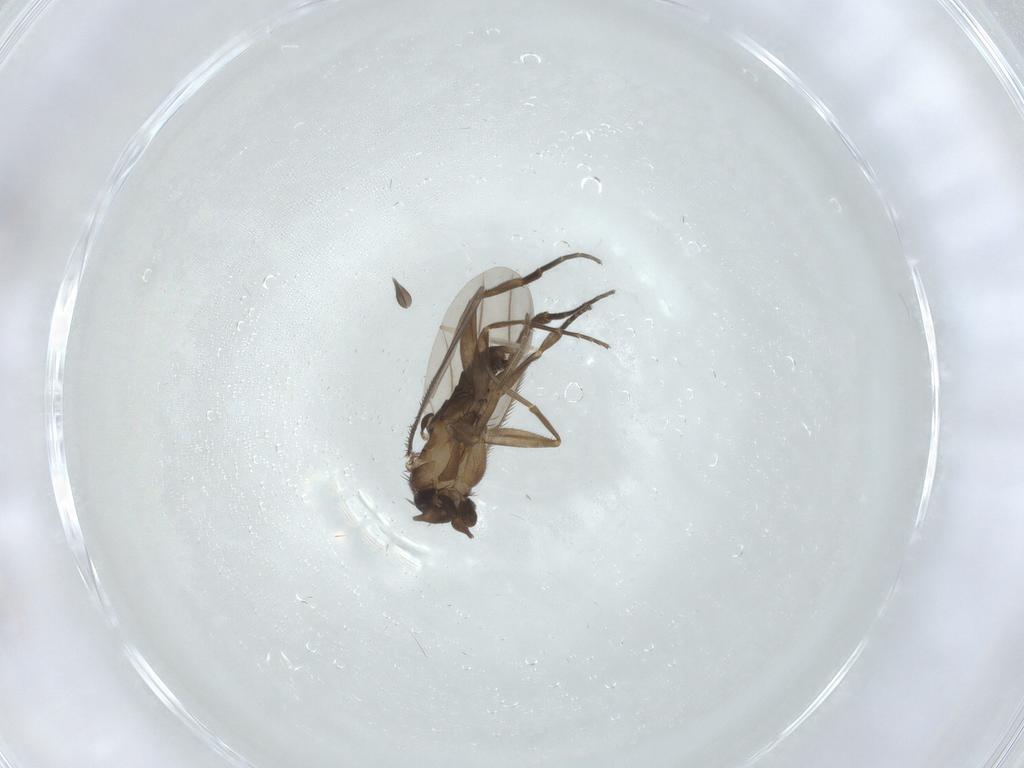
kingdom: Animalia
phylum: Arthropoda
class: Insecta
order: Diptera
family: Phoridae
